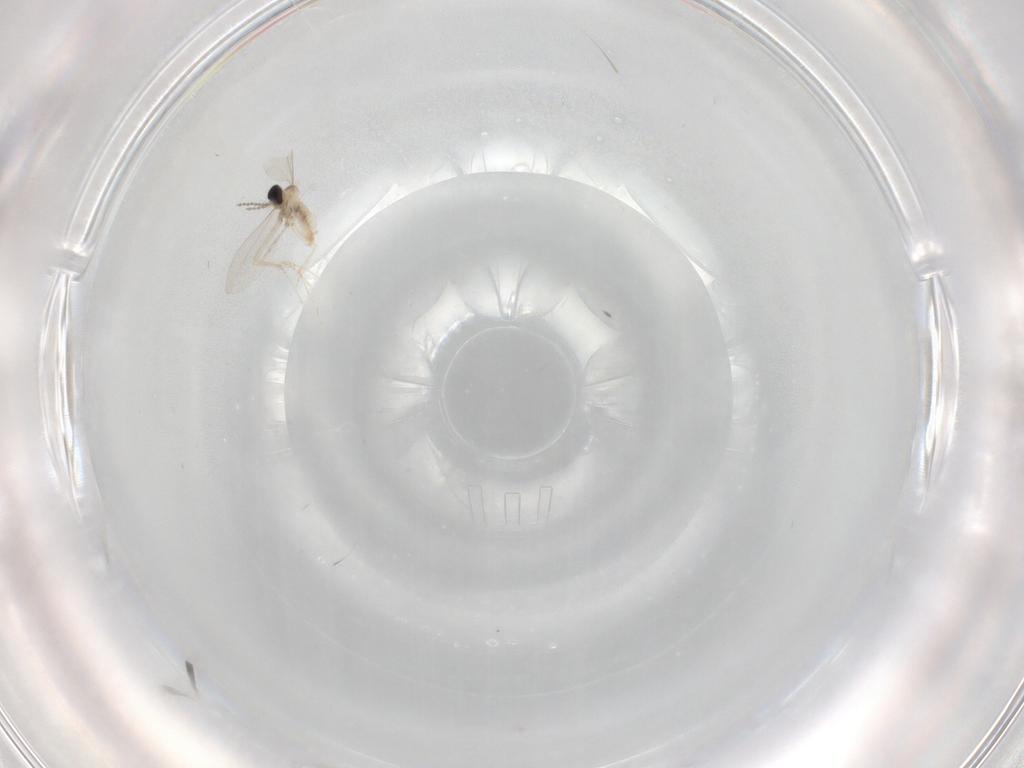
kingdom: Animalia
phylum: Arthropoda
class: Insecta
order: Diptera
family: Cecidomyiidae
